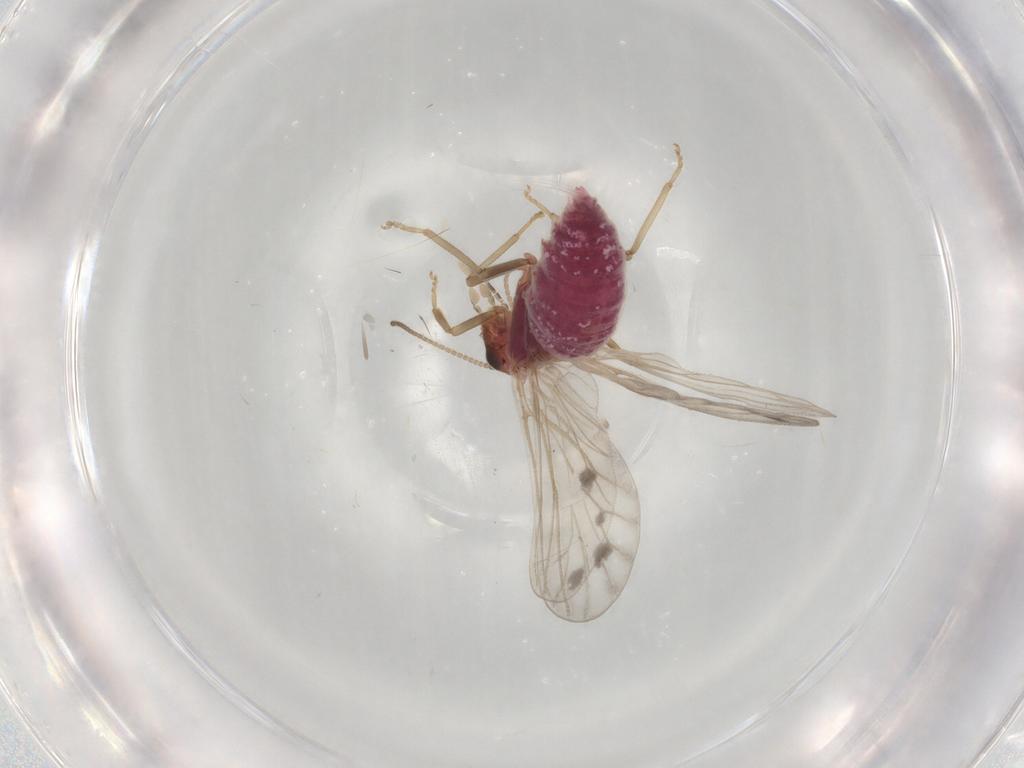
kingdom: Animalia
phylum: Arthropoda
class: Insecta
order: Neuroptera
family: Coniopterygidae
